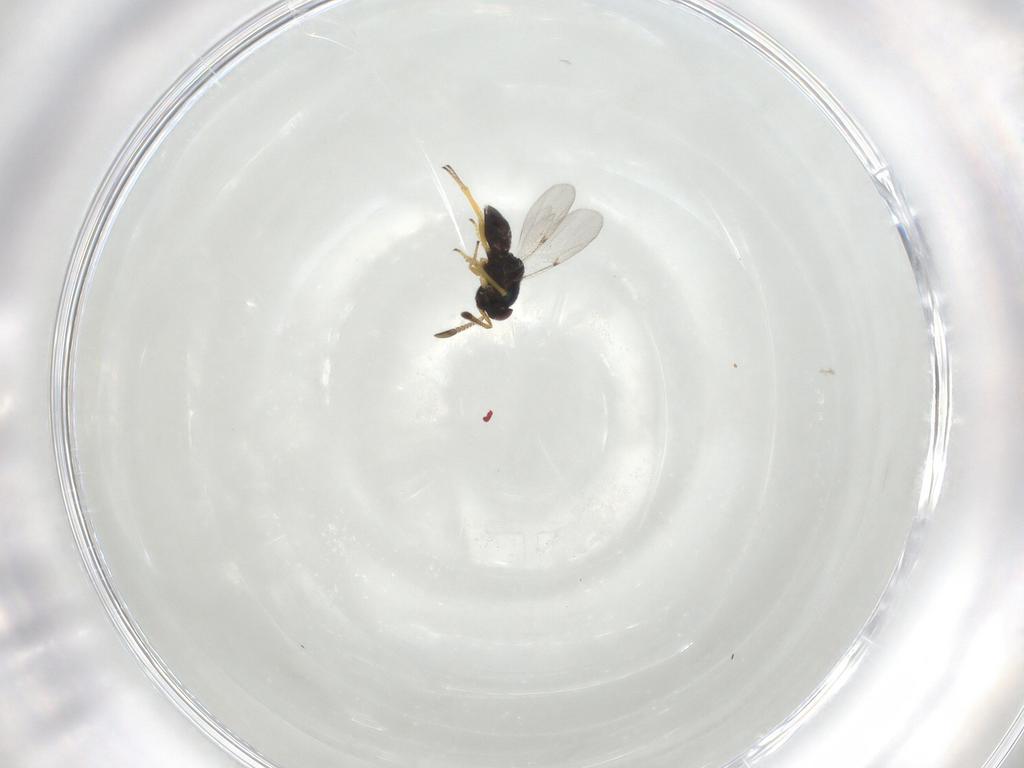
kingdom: Animalia
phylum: Arthropoda
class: Insecta
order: Hymenoptera
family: Encyrtidae
